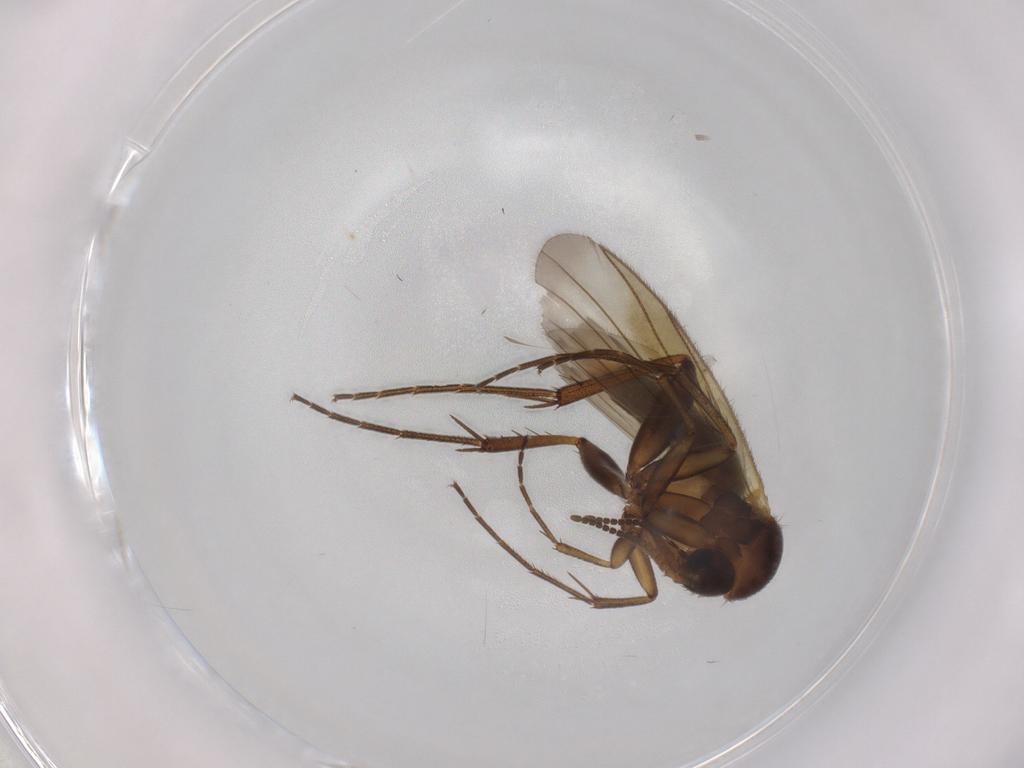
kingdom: Animalia
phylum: Arthropoda
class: Insecta
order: Diptera
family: Mycetophilidae
